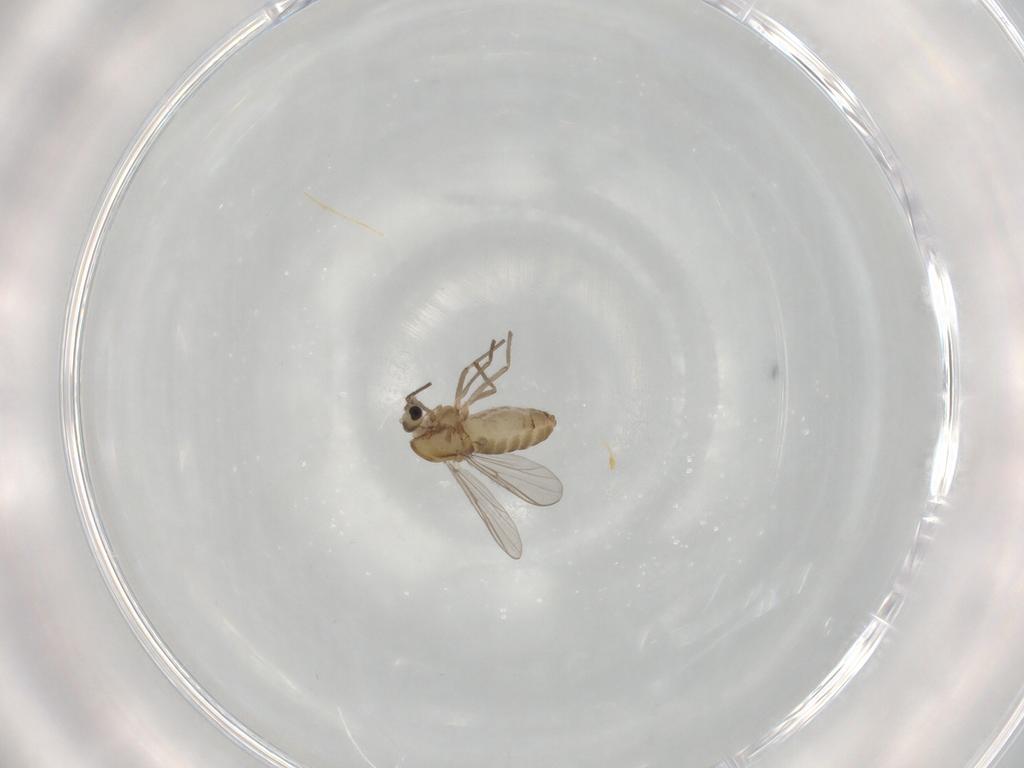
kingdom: Animalia
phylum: Arthropoda
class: Insecta
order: Diptera
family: Chironomidae
